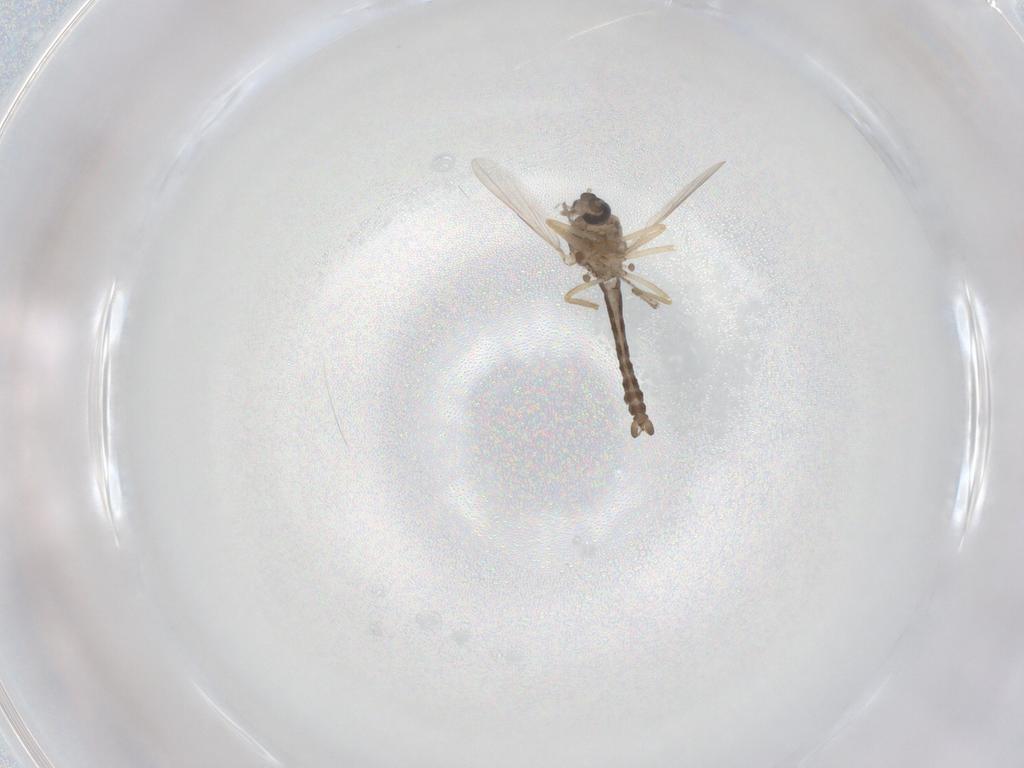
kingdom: Animalia
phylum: Arthropoda
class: Insecta
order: Diptera
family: Ceratopogonidae
